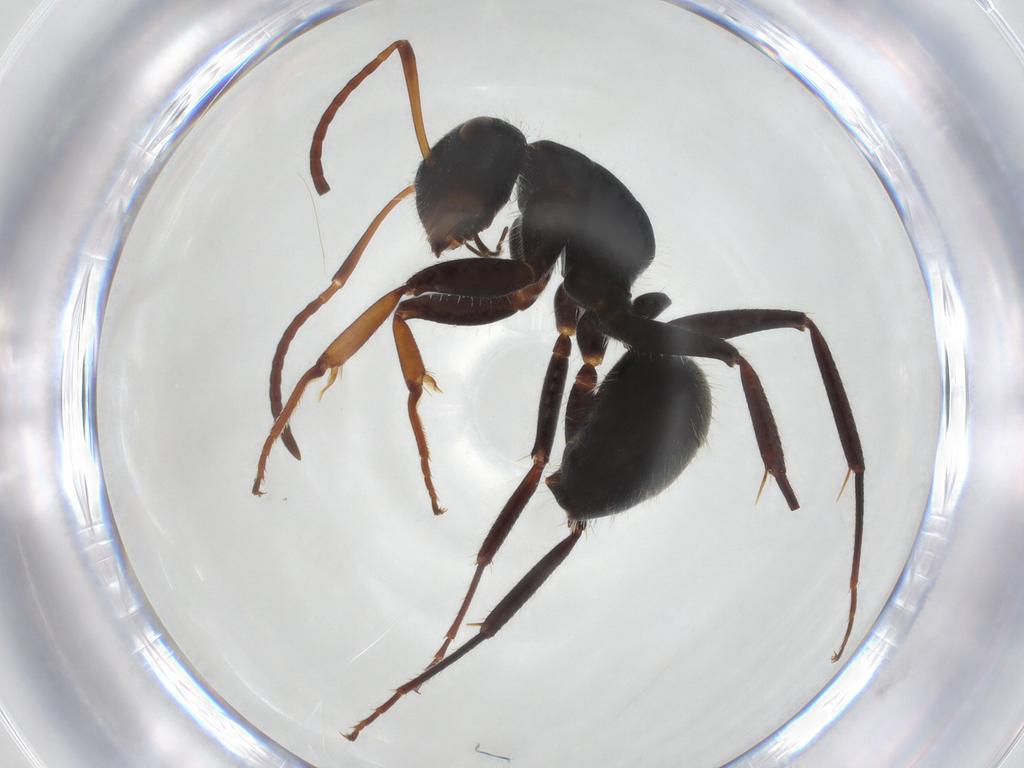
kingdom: Animalia
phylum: Arthropoda
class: Insecta
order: Hymenoptera
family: Formicidae
